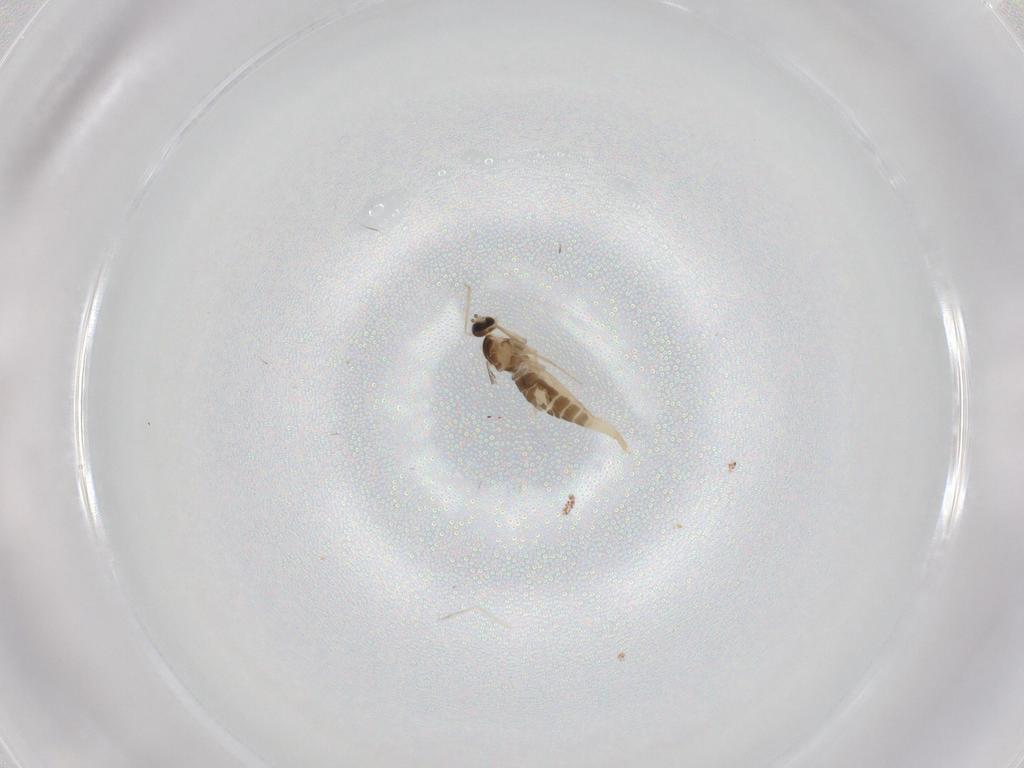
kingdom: Animalia
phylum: Arthropoda
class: Insecta
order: Diptera
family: Cecidomyiidae
